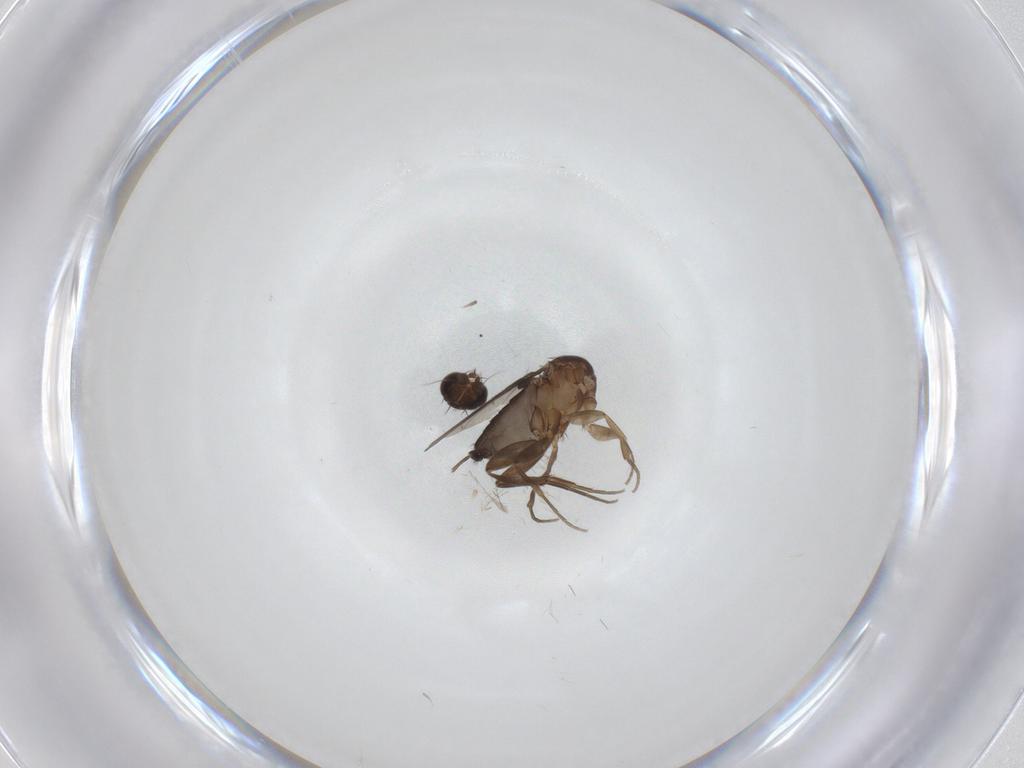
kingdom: Animalia
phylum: Arthropoda
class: Insecta
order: Diptera
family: Phoridae
